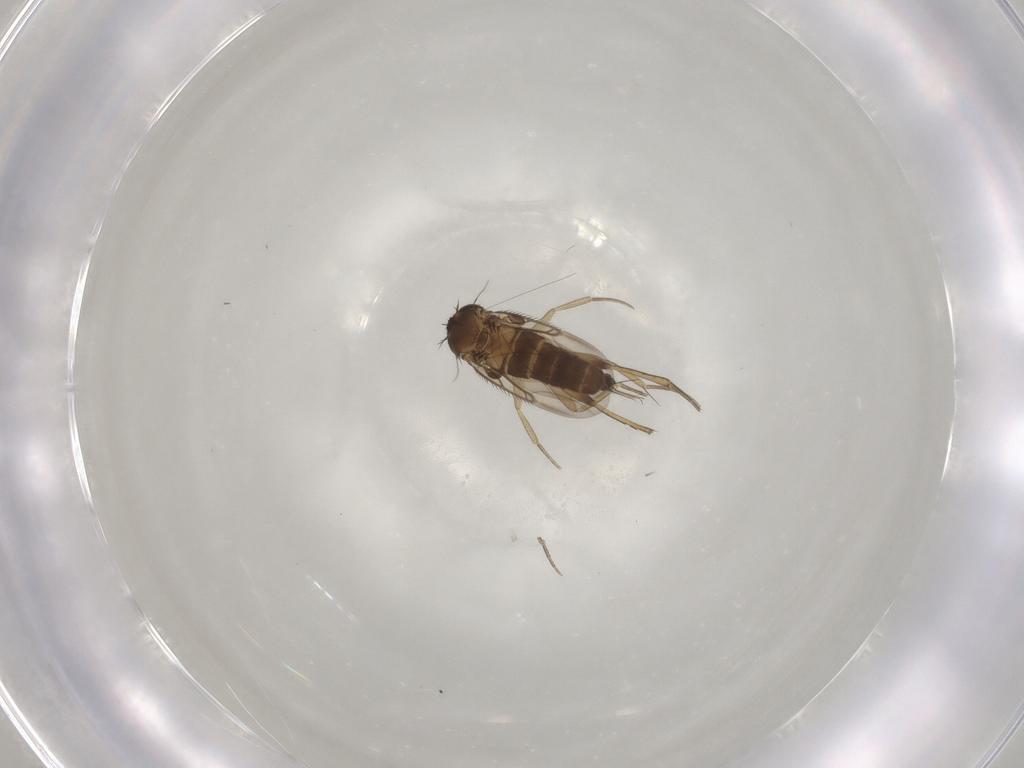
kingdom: Animalia
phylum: Arthropoda
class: Insecta
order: Diptera
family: Phoridae
